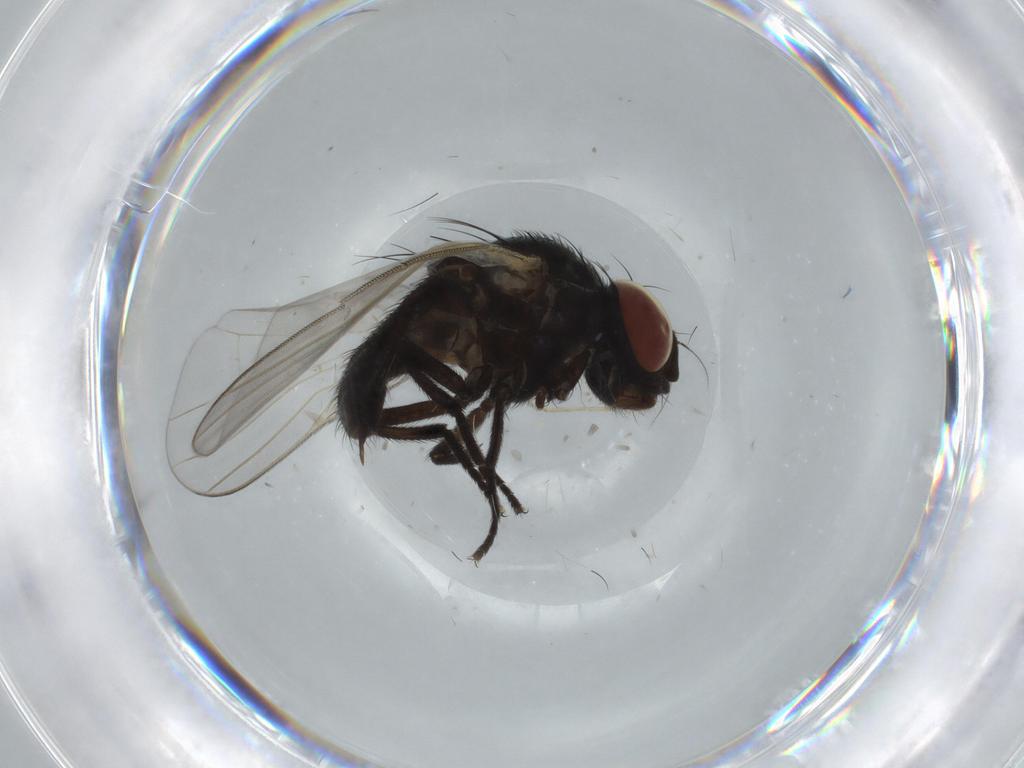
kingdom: Animalia
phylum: Arthropoda
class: Insecta
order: Diptera
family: Lonchaeidae
